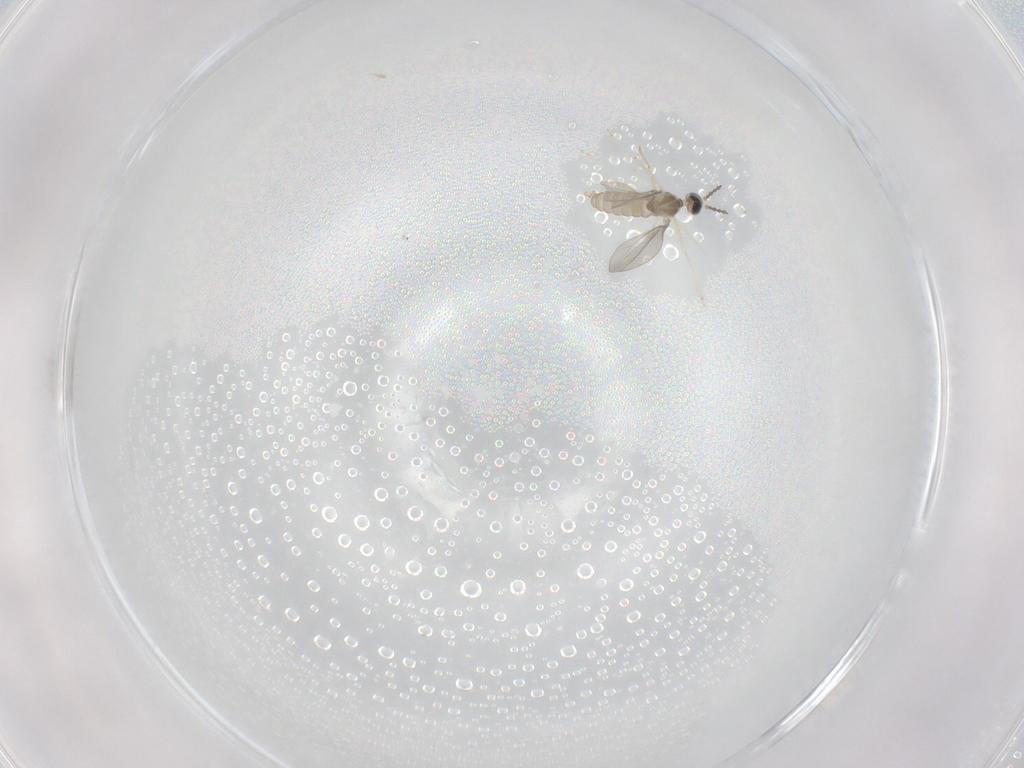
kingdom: Animalia
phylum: Arthropoda
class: Insecta
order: Diptera
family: Cecidomyiidae
